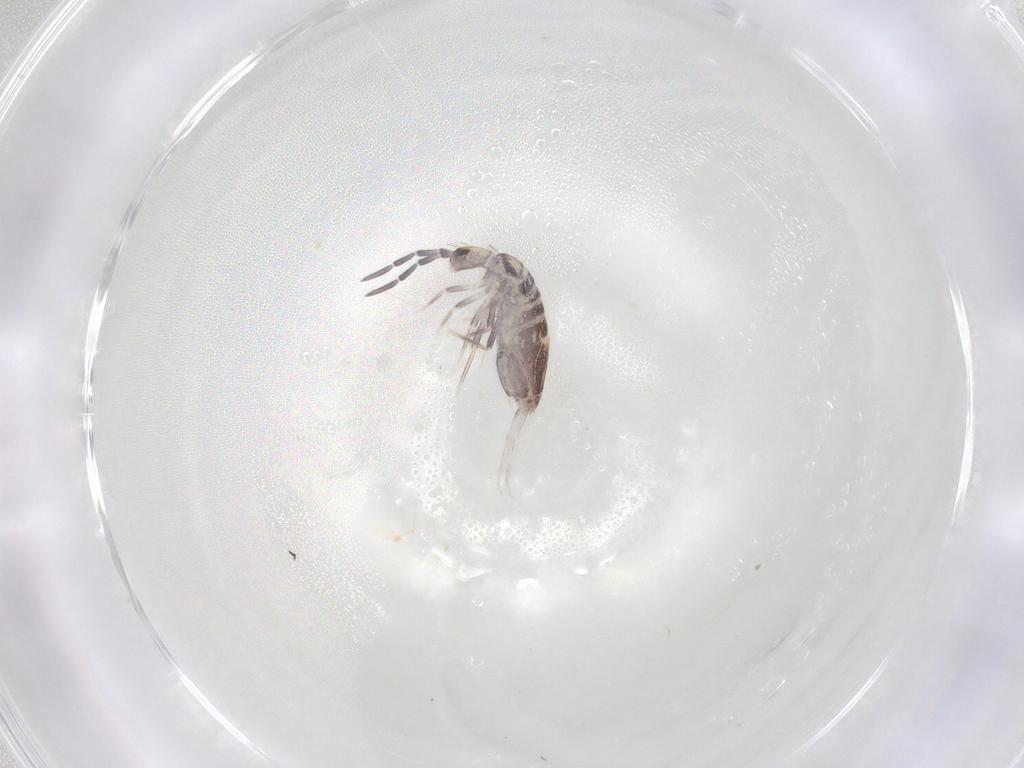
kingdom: Animalia
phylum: Arthropoda
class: Collembola
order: Entomobryomorpha
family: Entomobryidae
